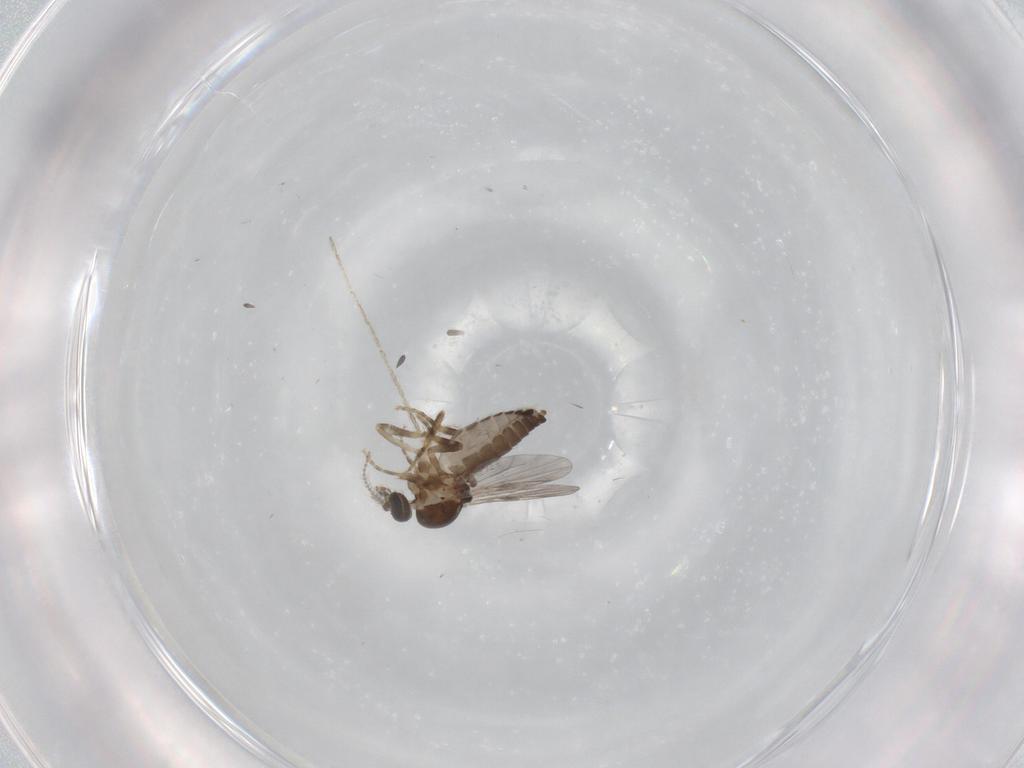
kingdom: Animalia
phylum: Arthropoda
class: Insecta
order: Diptera
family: Ceratopogonidae
